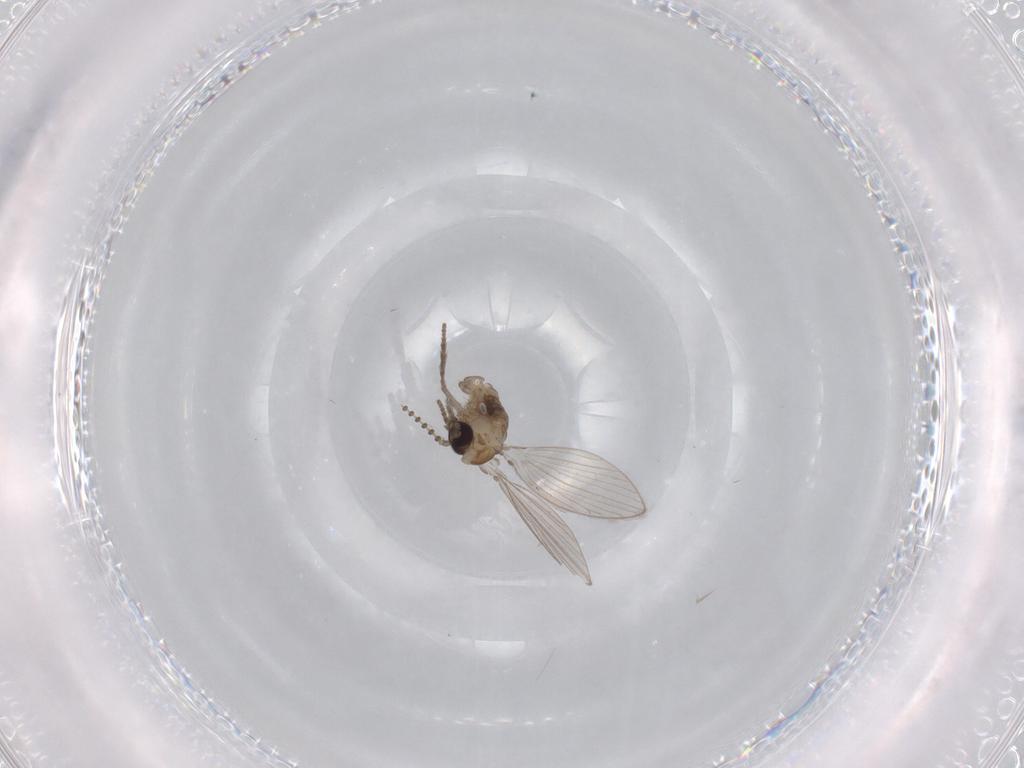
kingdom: Animalia
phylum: Arthropoda
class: Insecta
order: Diptera
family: Psychodidae
